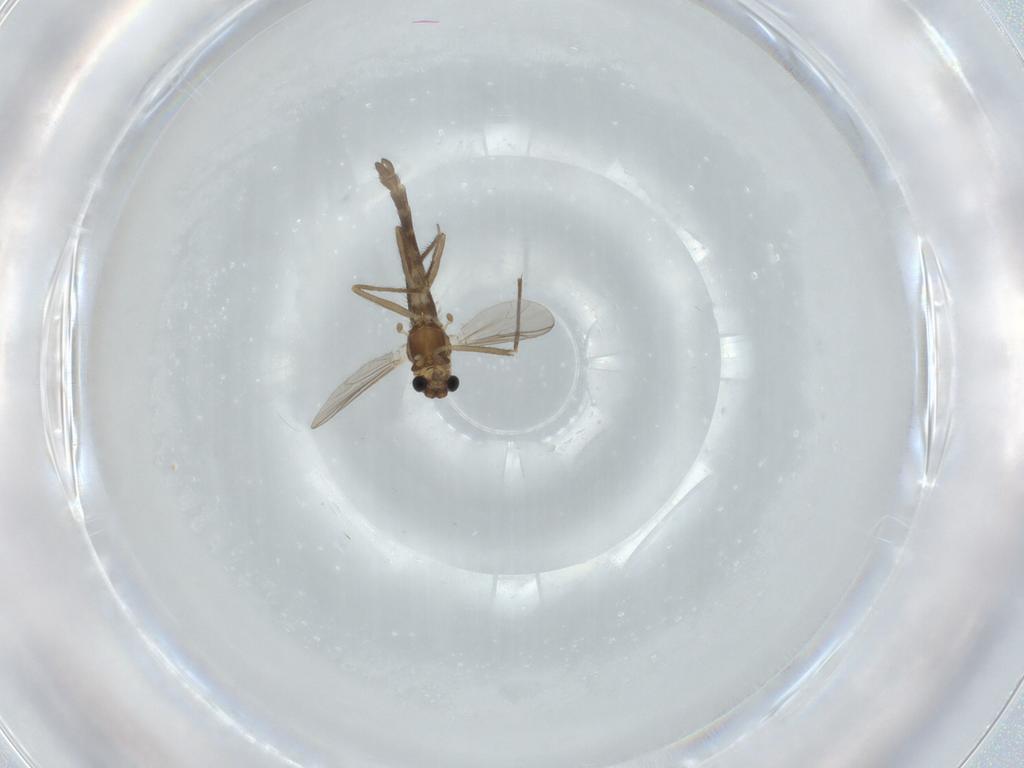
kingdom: Animalia
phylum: Arthropoda
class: Insecta
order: Diptera
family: Chironomidae
